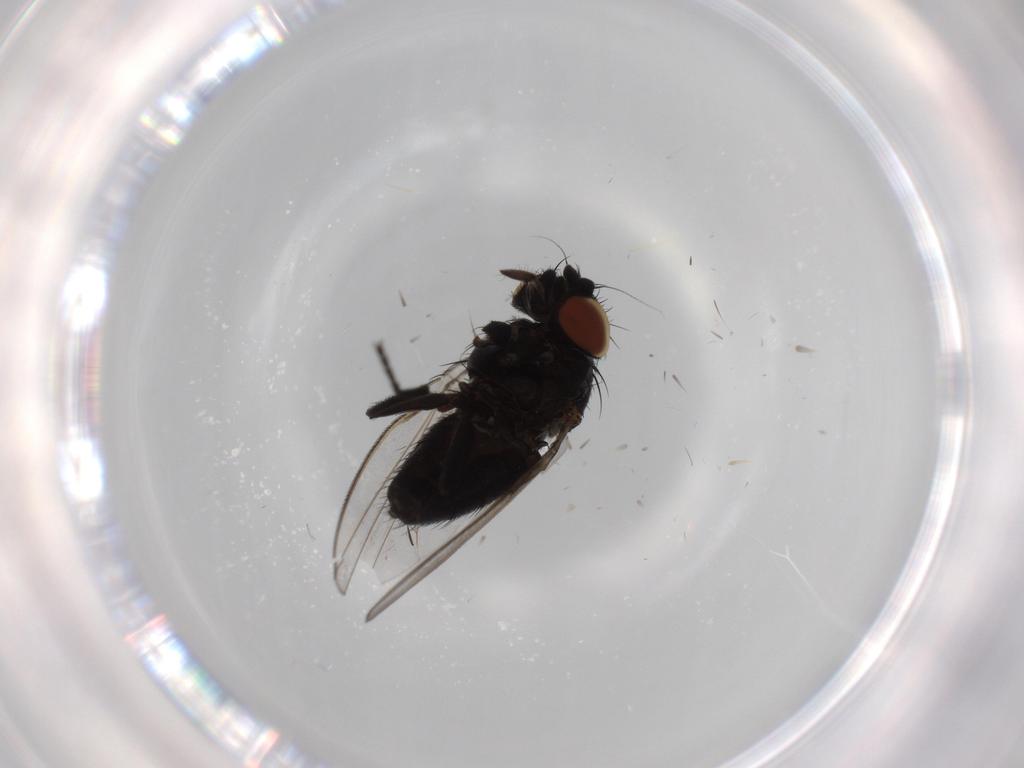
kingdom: Animalia
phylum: Arthropoda
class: Insecta
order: Diptera
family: Milichiidae
